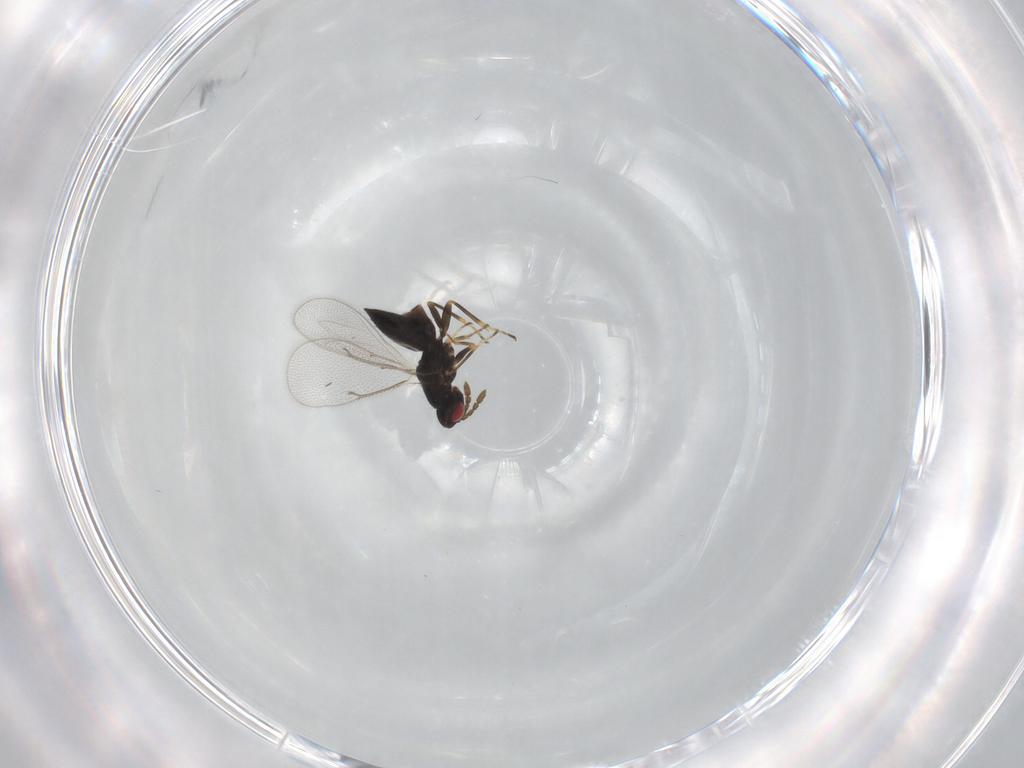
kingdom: Animalia
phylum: Arthropoda
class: Insecta
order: Hymenoptera
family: Eulophidae
